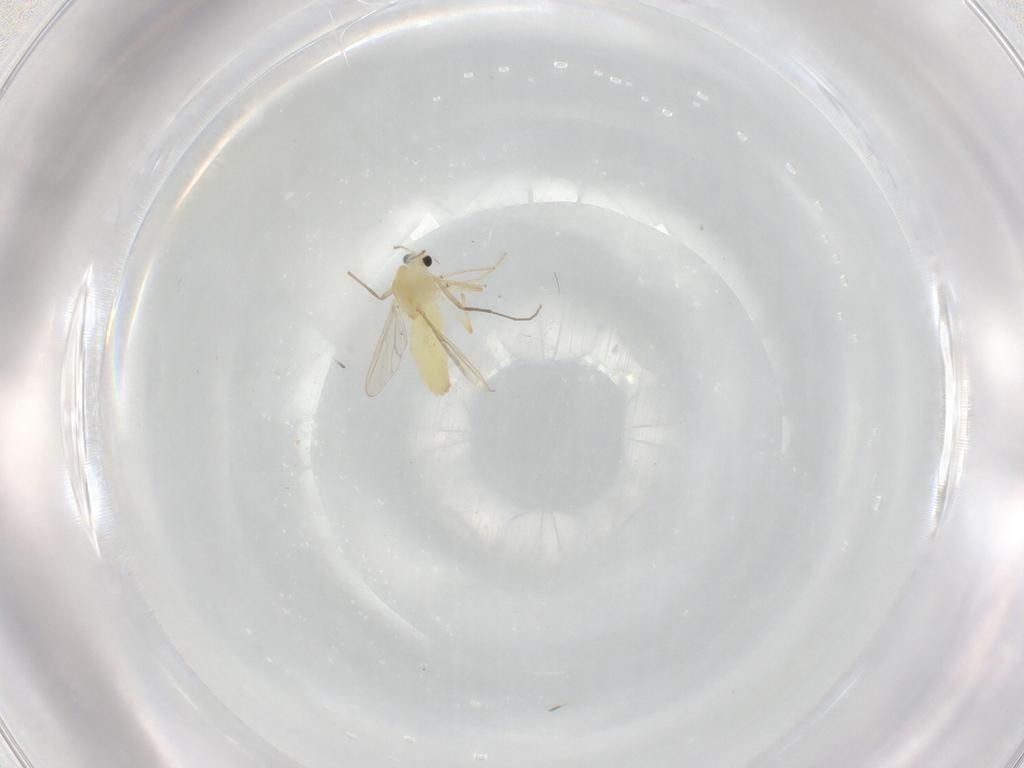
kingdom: Animalia
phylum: Arthropoda
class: Insecta
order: Diptera
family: Chironomidae
